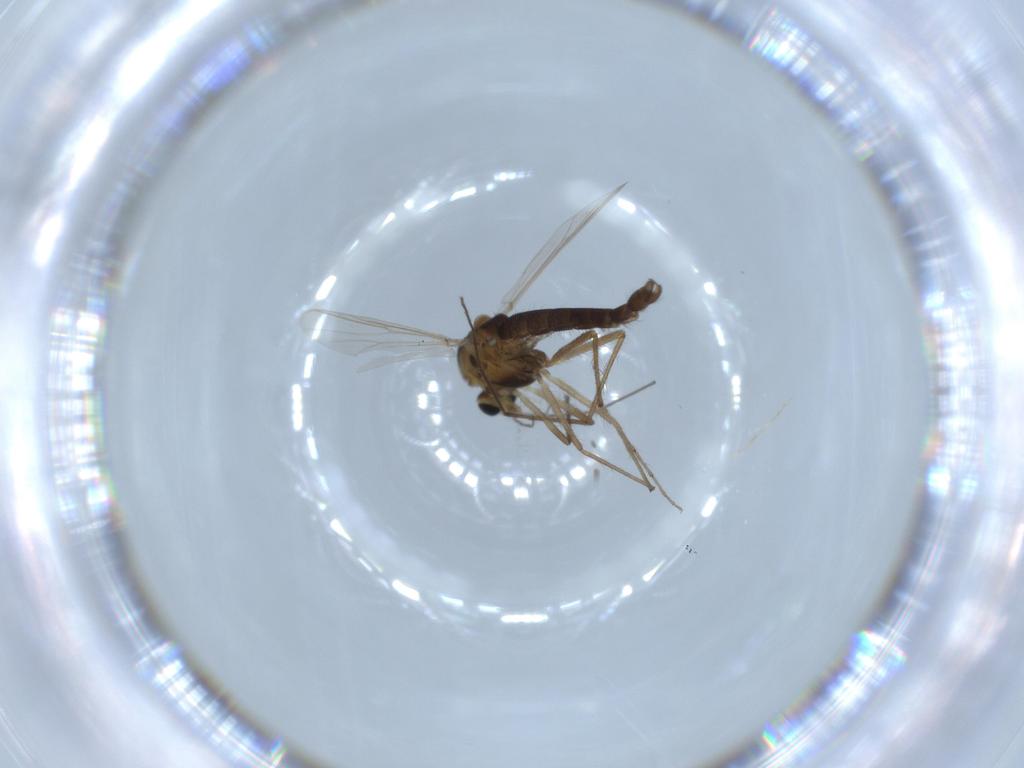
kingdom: Animalia
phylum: Arthropoda
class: Insecta
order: Diptera
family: Chironomidae
